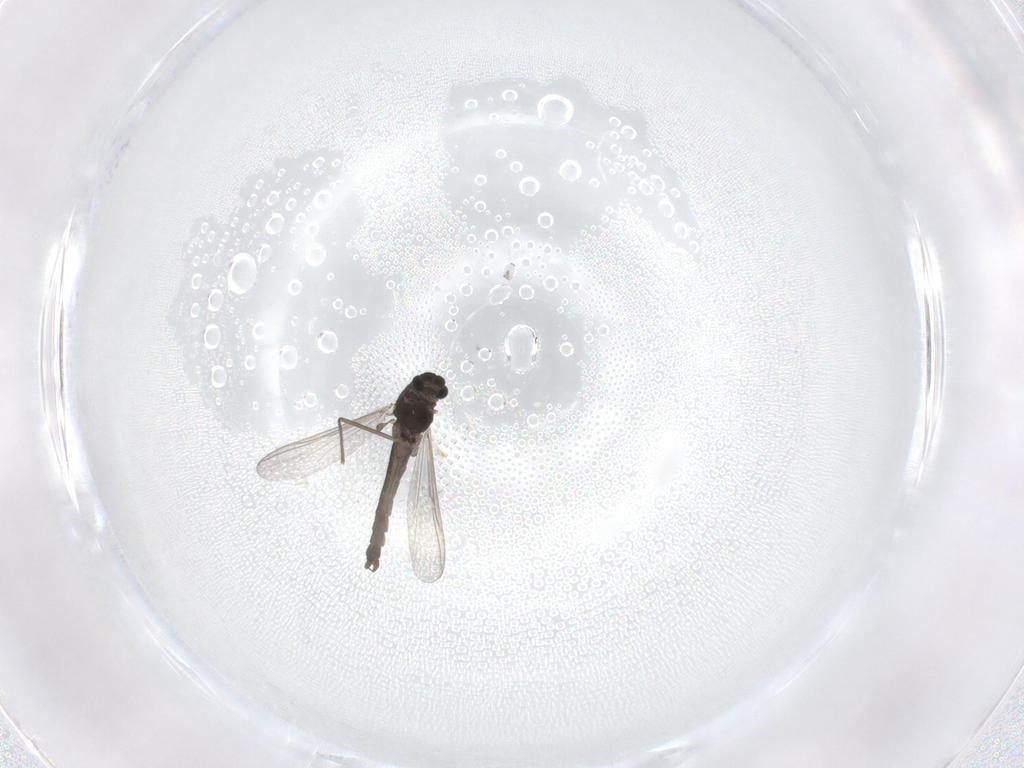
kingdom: Animalia
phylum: Arthropoda
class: Insecta
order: Diptera
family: Chironomidae
